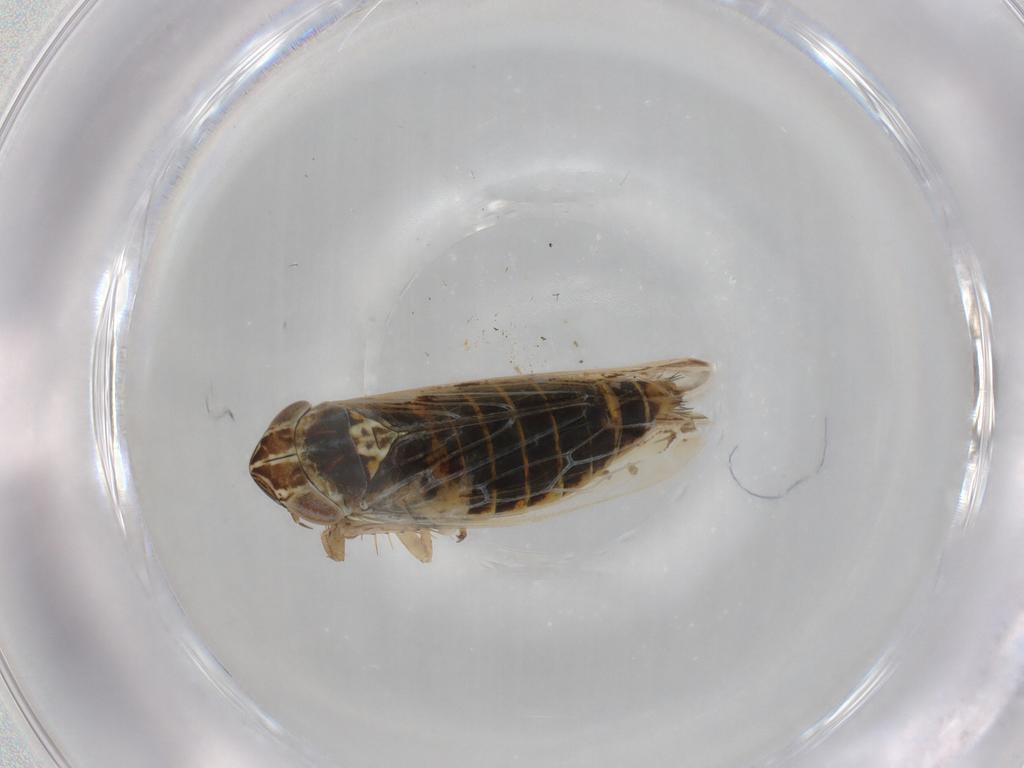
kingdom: Animalia
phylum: Arthropoda
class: Insecta
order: Hemiptera
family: Cicadellidae
